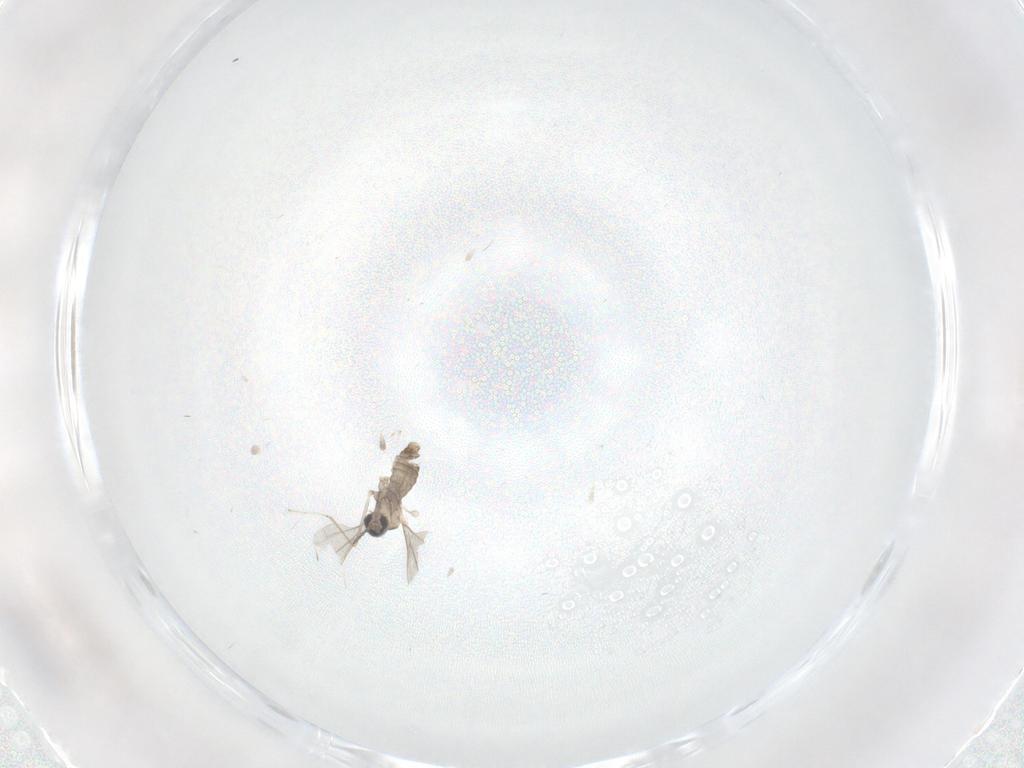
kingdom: Animalia
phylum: Arthropoda
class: Insecta
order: Diptera
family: Cecidomyiidae
